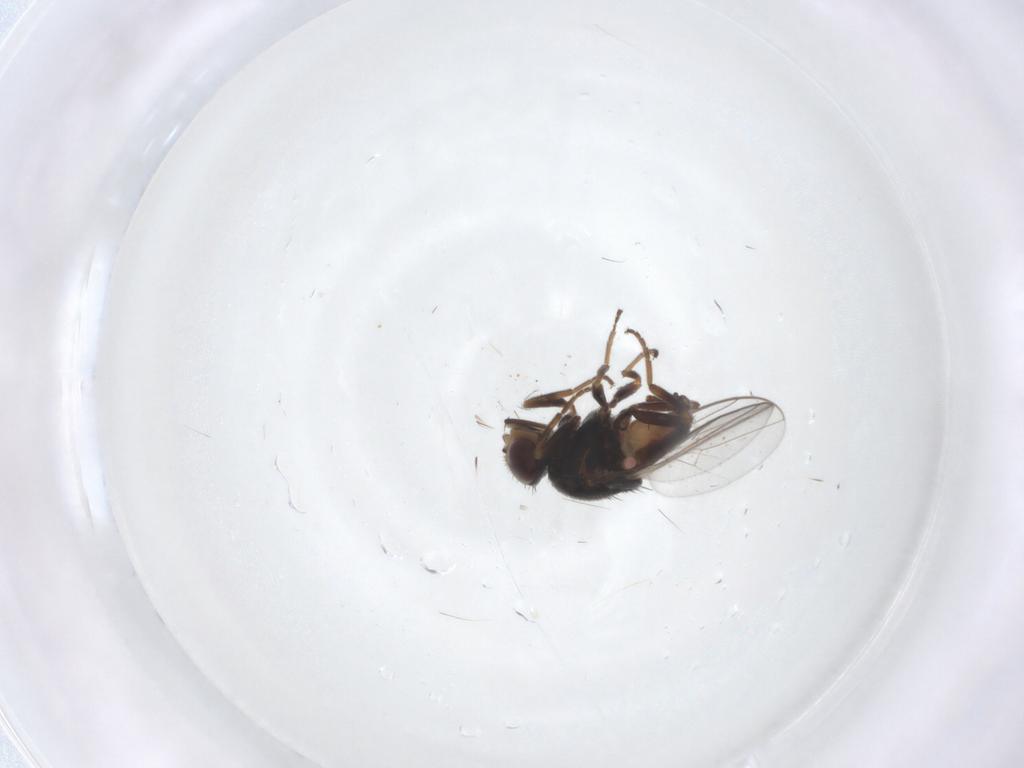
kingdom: Animalia
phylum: Arthropoda
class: Insecta
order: Diptera
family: Chloropidae
